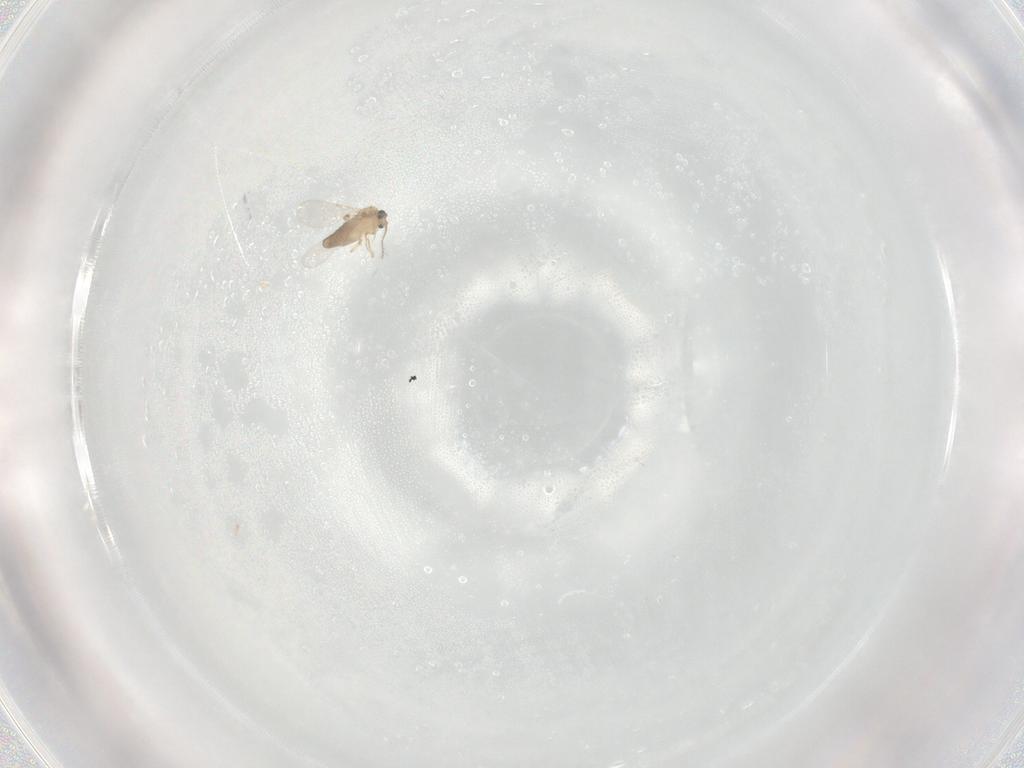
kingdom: Animalia
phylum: Arthropoda
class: Insecta
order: Diptera
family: Ceratopogonidae
